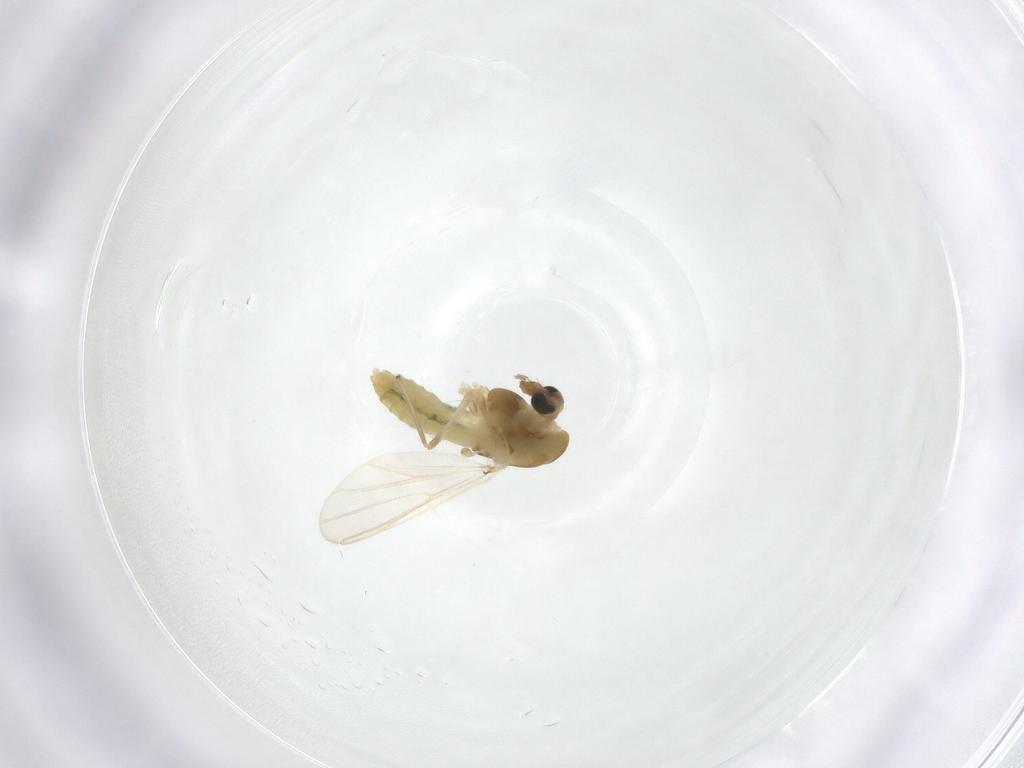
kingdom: Animalia
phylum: Arthropoda
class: Insecta
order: Diptera
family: Chironomidae
